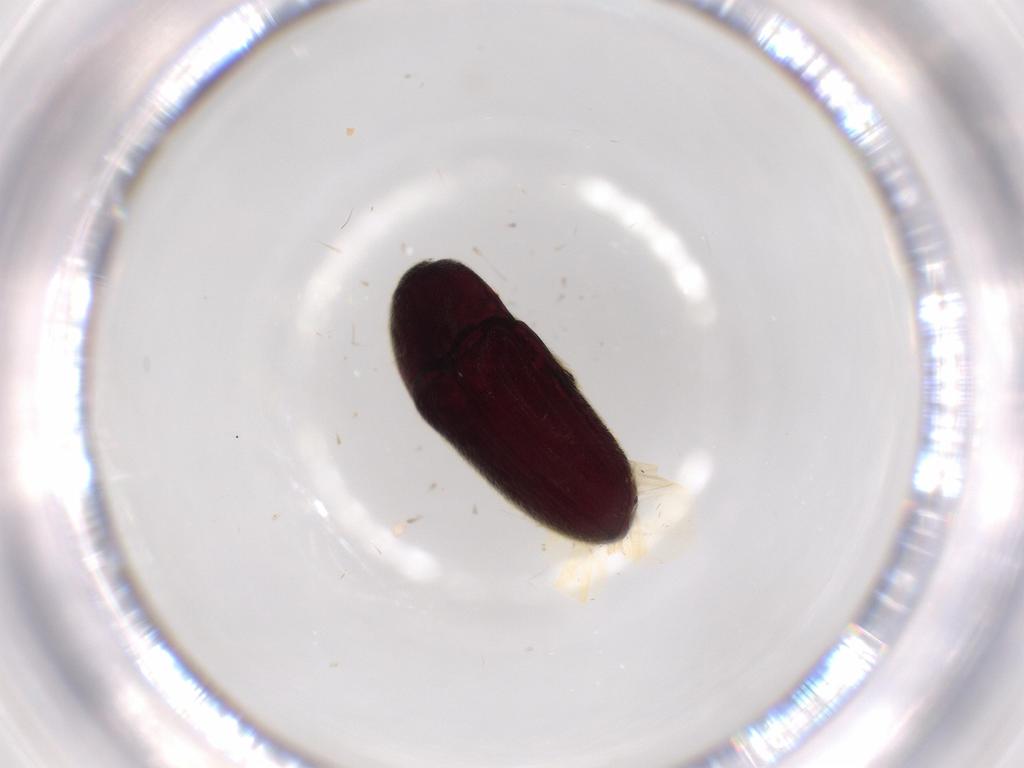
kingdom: Animalia
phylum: Arthropoda
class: Insecta
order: Coleoptera
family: Throscidae
